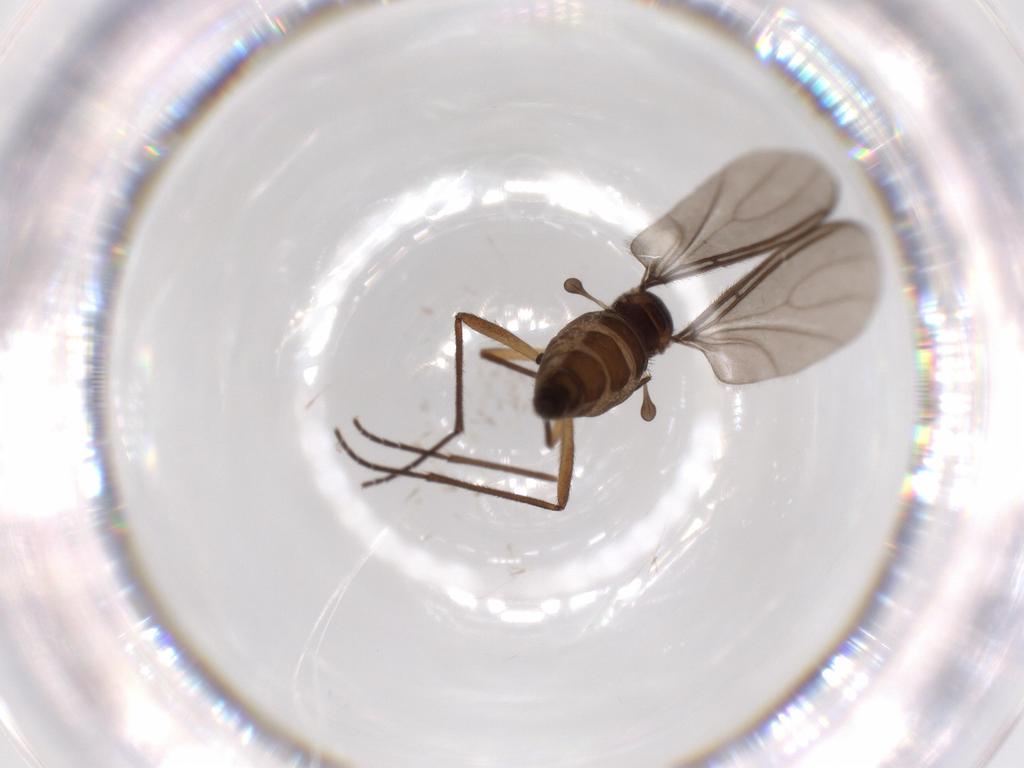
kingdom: Animalia
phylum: Arthropoda
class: Insecta
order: Diptera
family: Sciaridae
